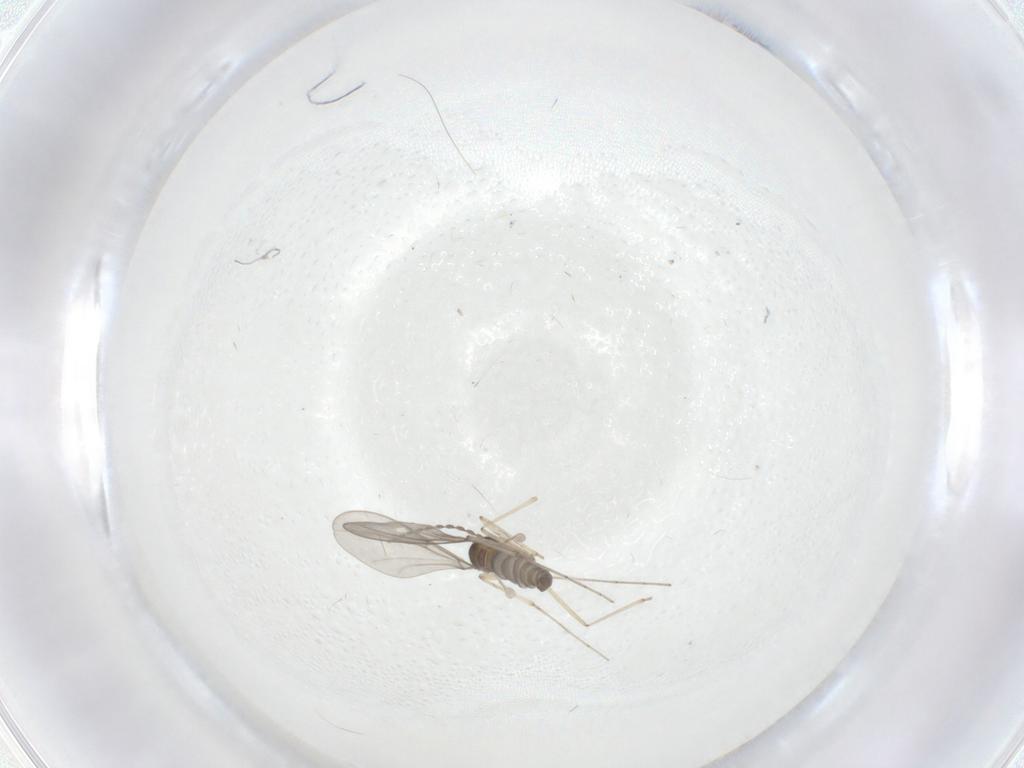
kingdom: Animalia
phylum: Arthropoda
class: Insecta
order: Diptera
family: Cecidomyiidae
